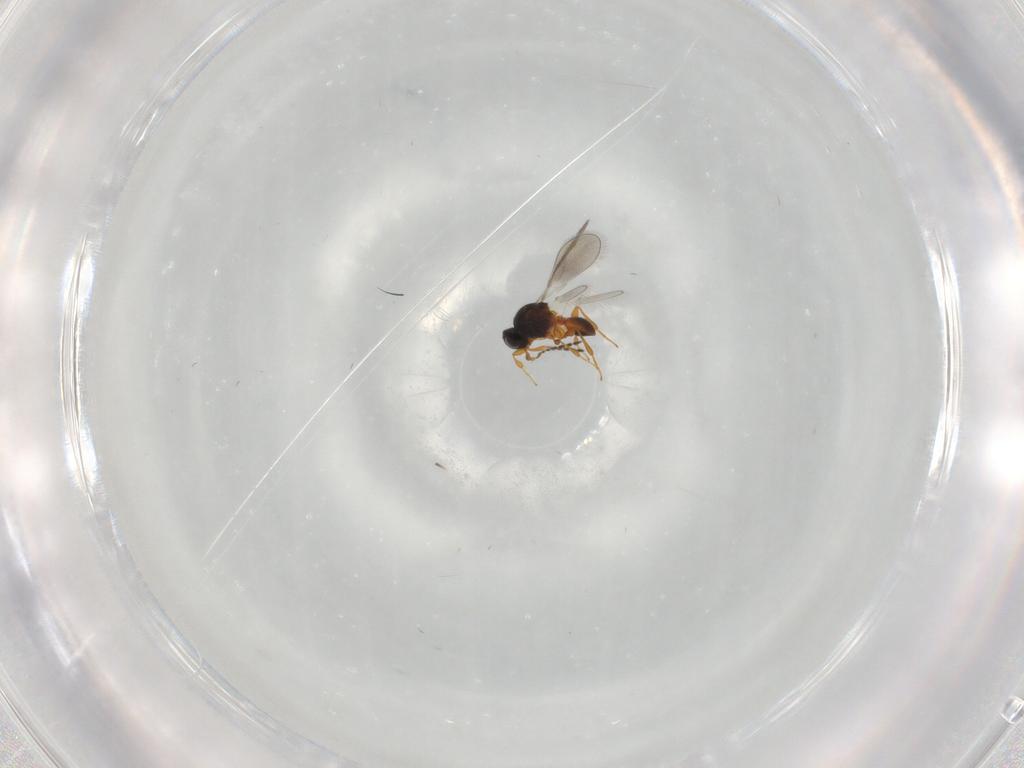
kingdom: Animalia
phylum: Arthropoda
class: Insecta
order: Hymenoptera
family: Platygastridae
